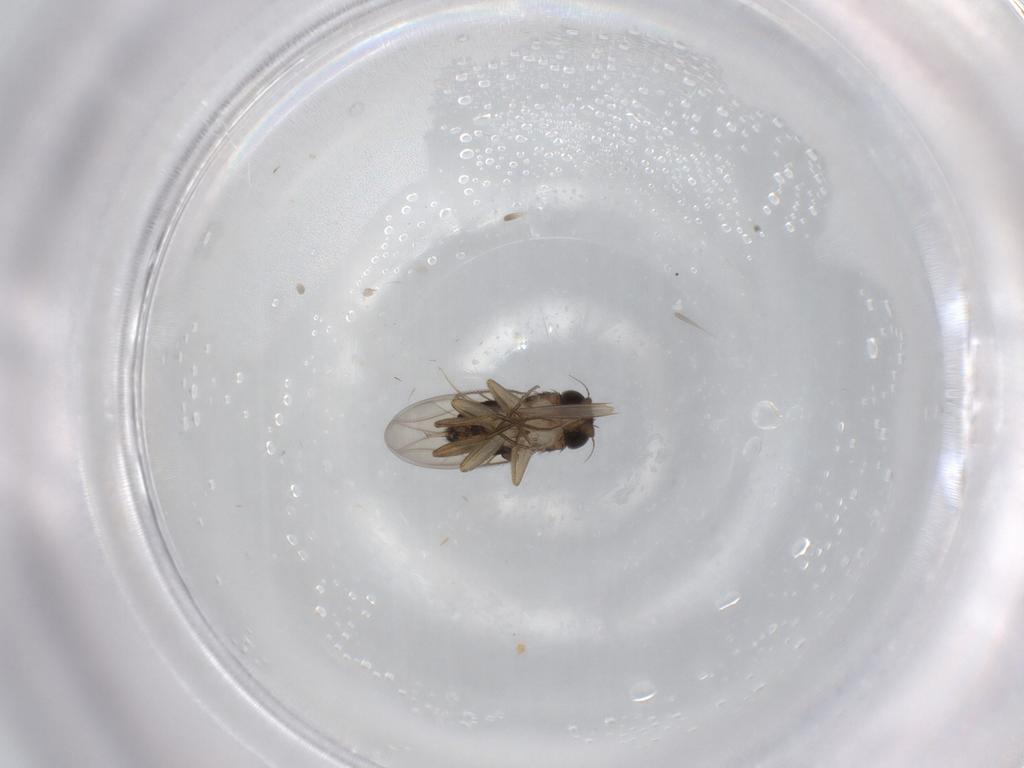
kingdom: Animalia
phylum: Arthropoda
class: Insecta
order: Diptera
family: Phoridae
